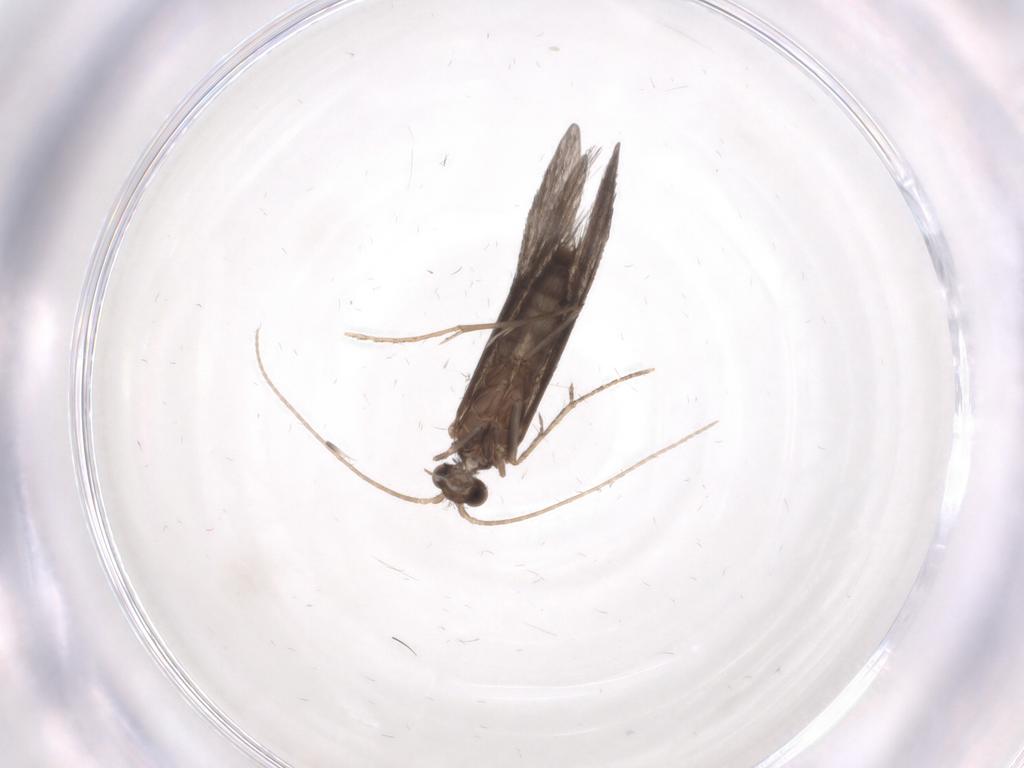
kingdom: Animalia
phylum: Arthropoda
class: Insecta
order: Trichoptera
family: Xiphocentronidae
